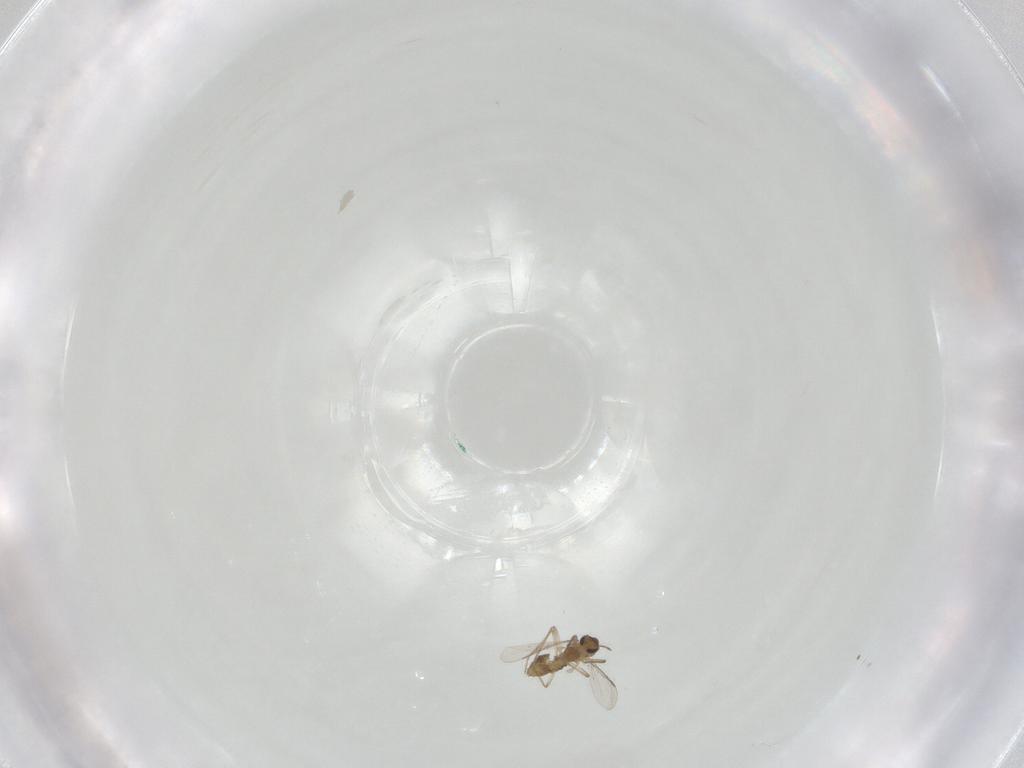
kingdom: Animalia
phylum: Arthropoda
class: Insecta
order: Diptera
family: Chironomidae
